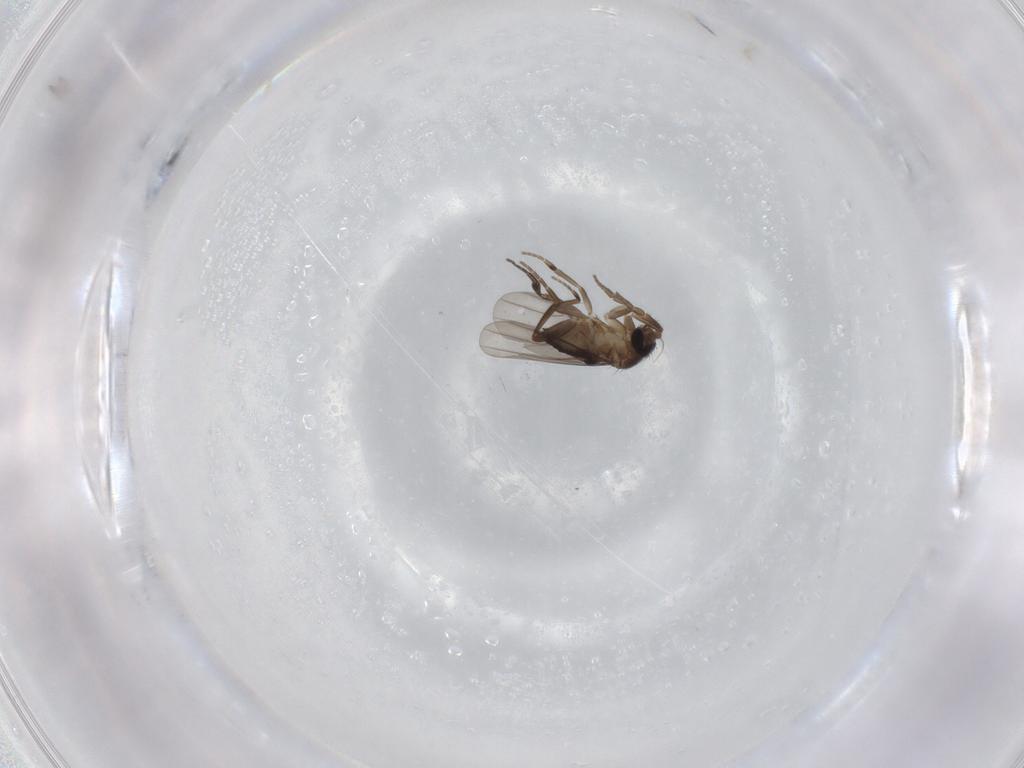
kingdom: Animalia
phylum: Arthropoda
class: Insecta
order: Diptera
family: Phoridae
